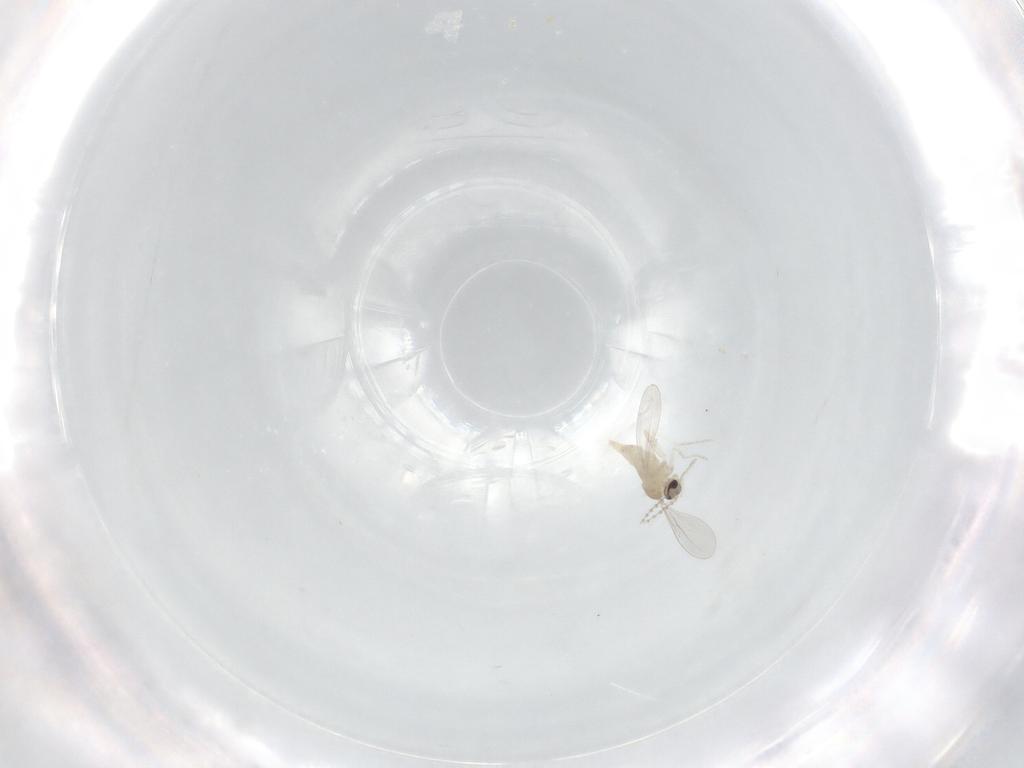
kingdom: Animalia
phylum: Arthropoda
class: Insecta
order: Diptera
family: Cecidomyiidae
